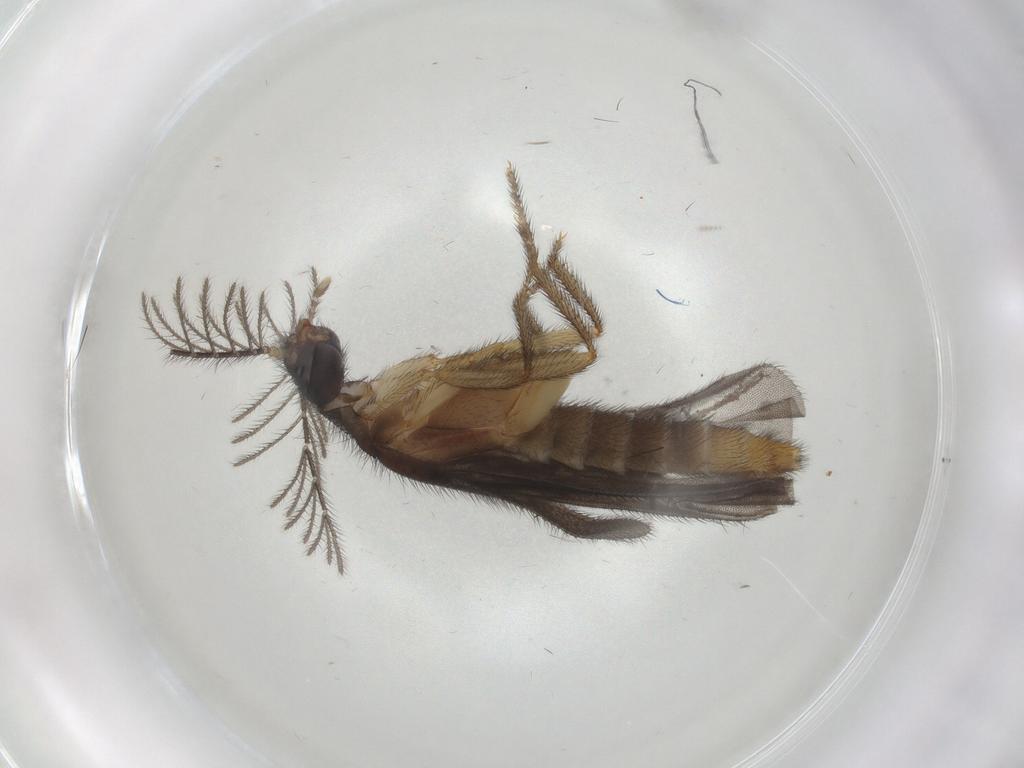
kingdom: Animalia
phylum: Arthropoda
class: Insecta
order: Coleoptera
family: Phengodidae
